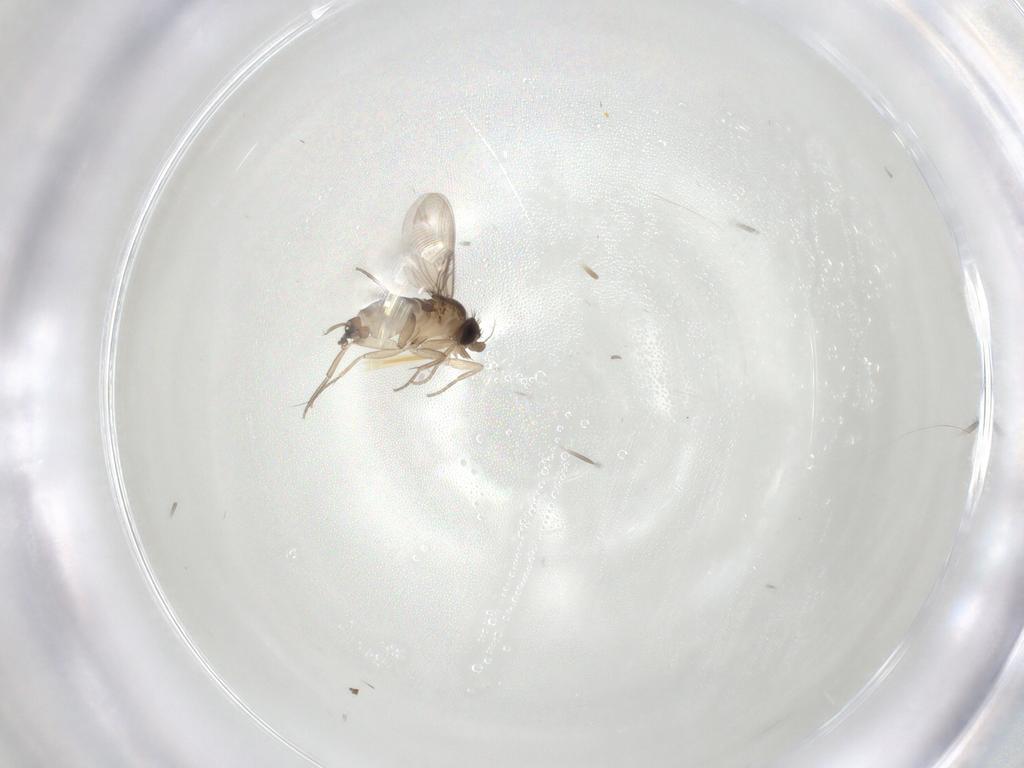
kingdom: Animalia
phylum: Arthropoda
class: Insecta
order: Diptera
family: Phoridae
